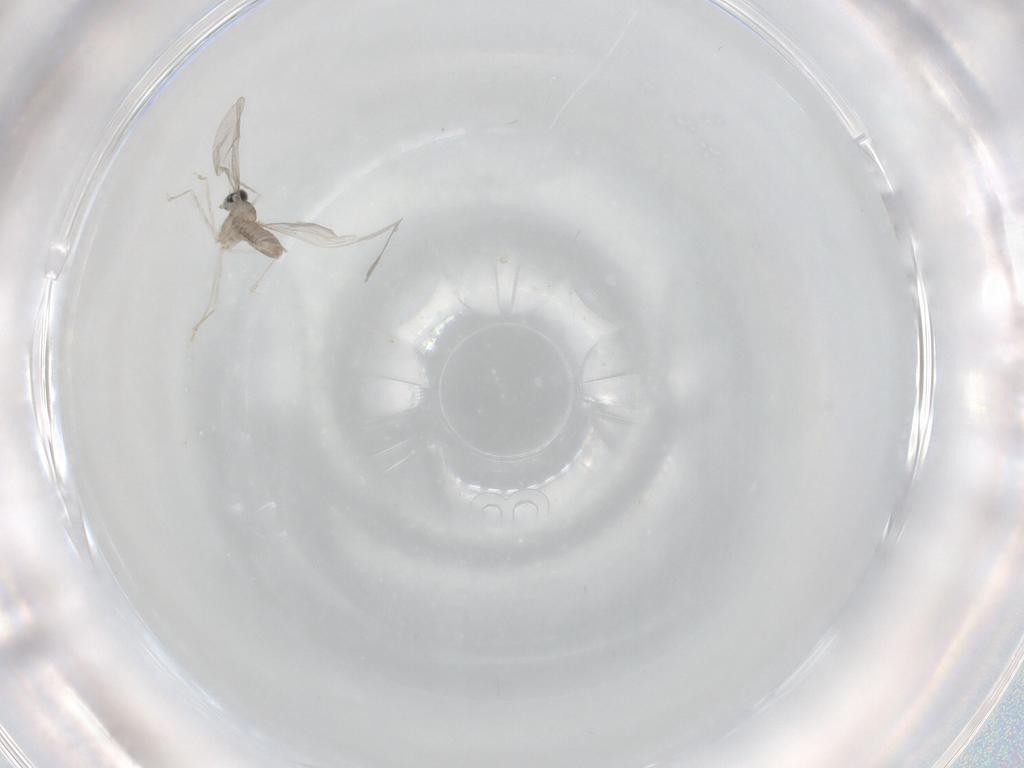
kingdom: Animalia
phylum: Arthropoda
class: Insecta
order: Diptera
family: Cecidomyiidae
